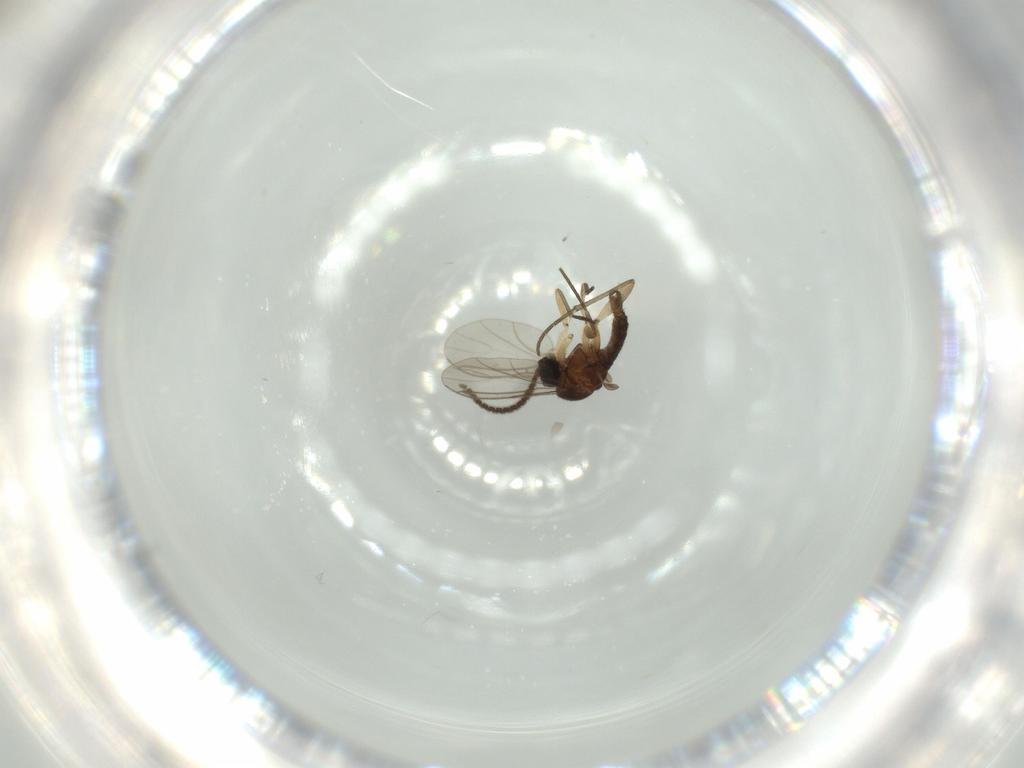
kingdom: Animalia
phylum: Arthropoda
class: Insecta
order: Diptera
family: Sciaridae
